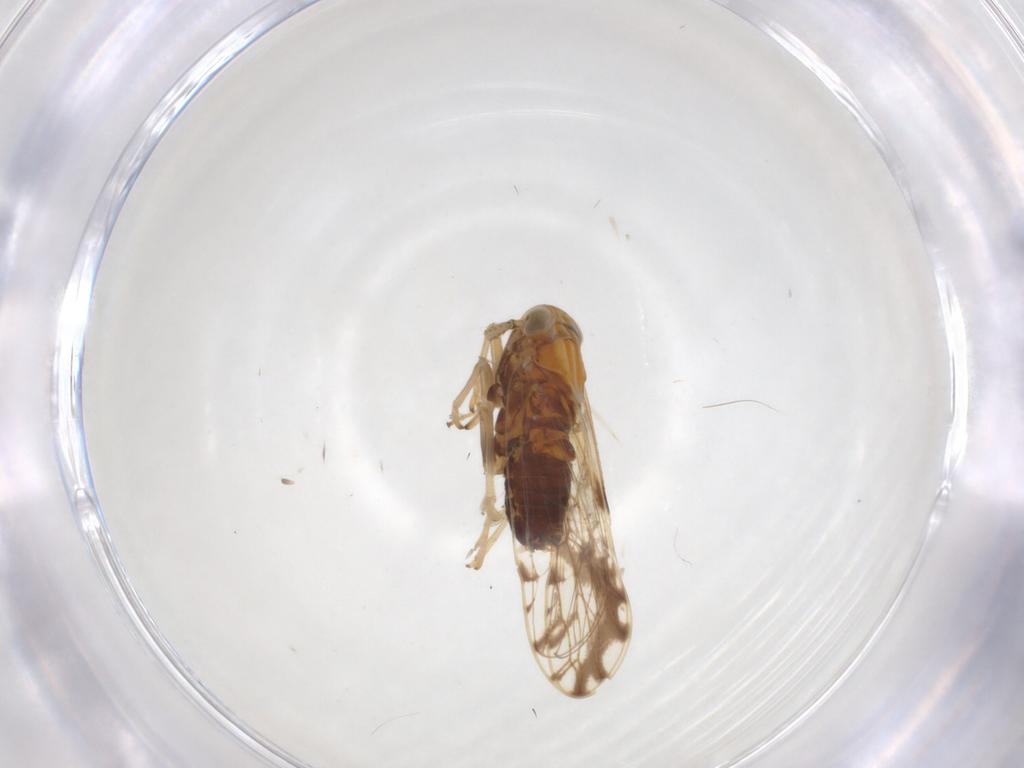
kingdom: Animalia
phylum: Arthropoda
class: Insecta
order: Hemiptera
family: Delphacidae
